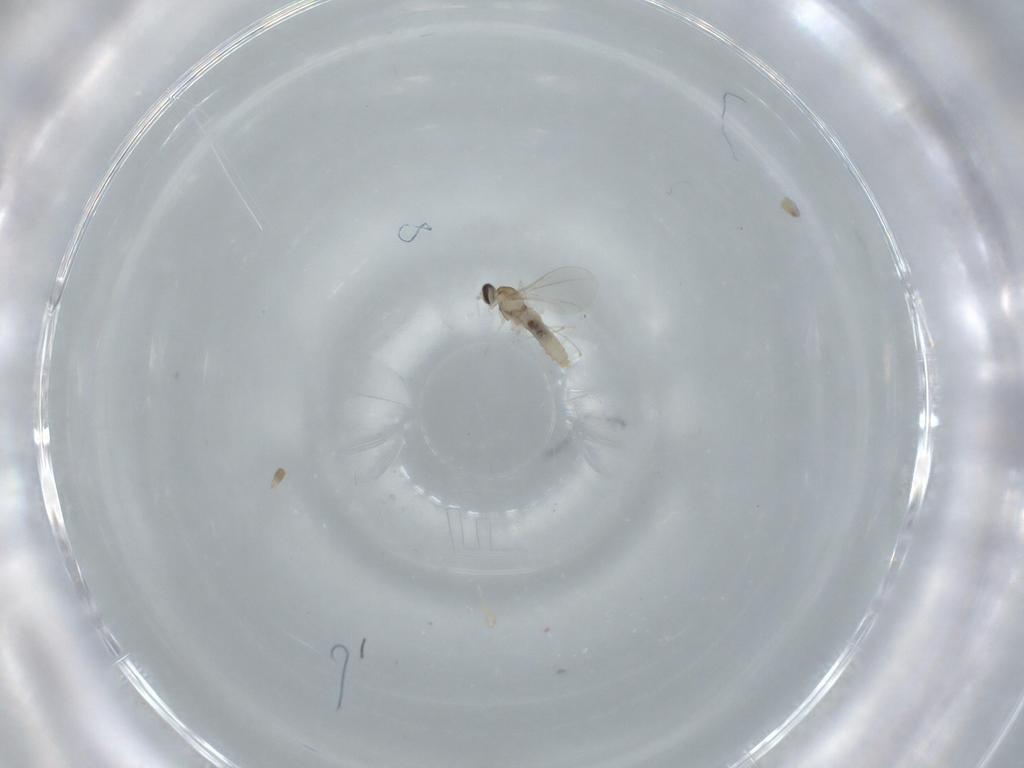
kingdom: Animalia
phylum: Arthropoda
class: Insecta
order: Diptera
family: Cecidomyiidae
